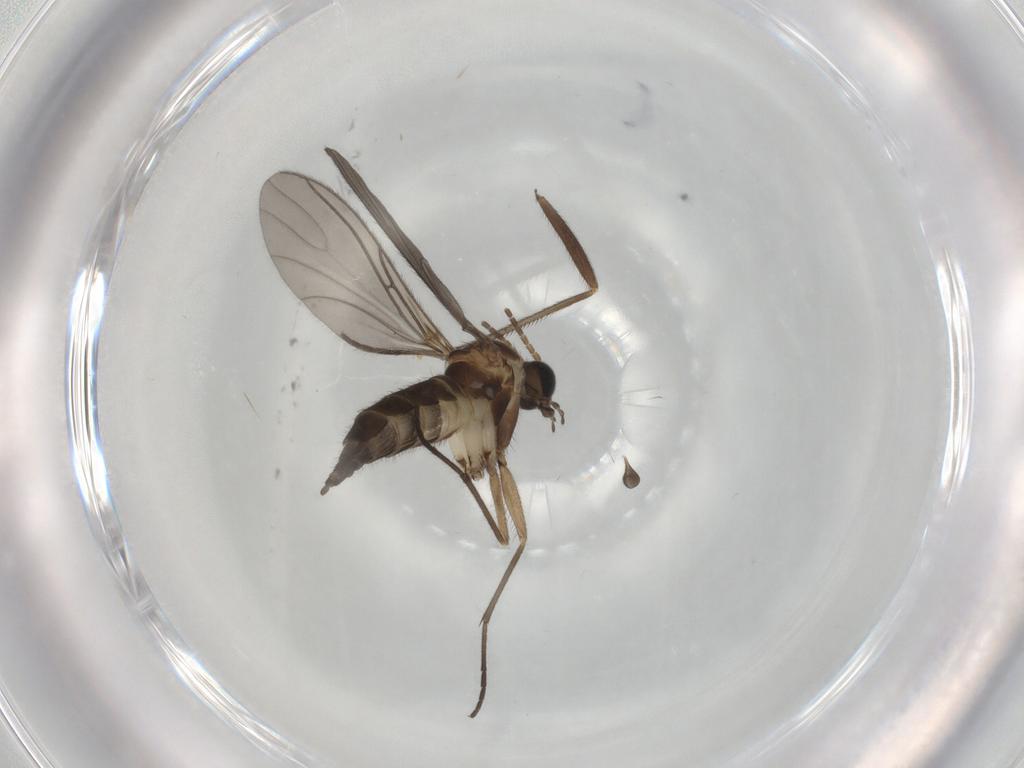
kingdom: Animalia
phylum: Arthropoda
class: Insecta
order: Diptera
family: Sciaridae
